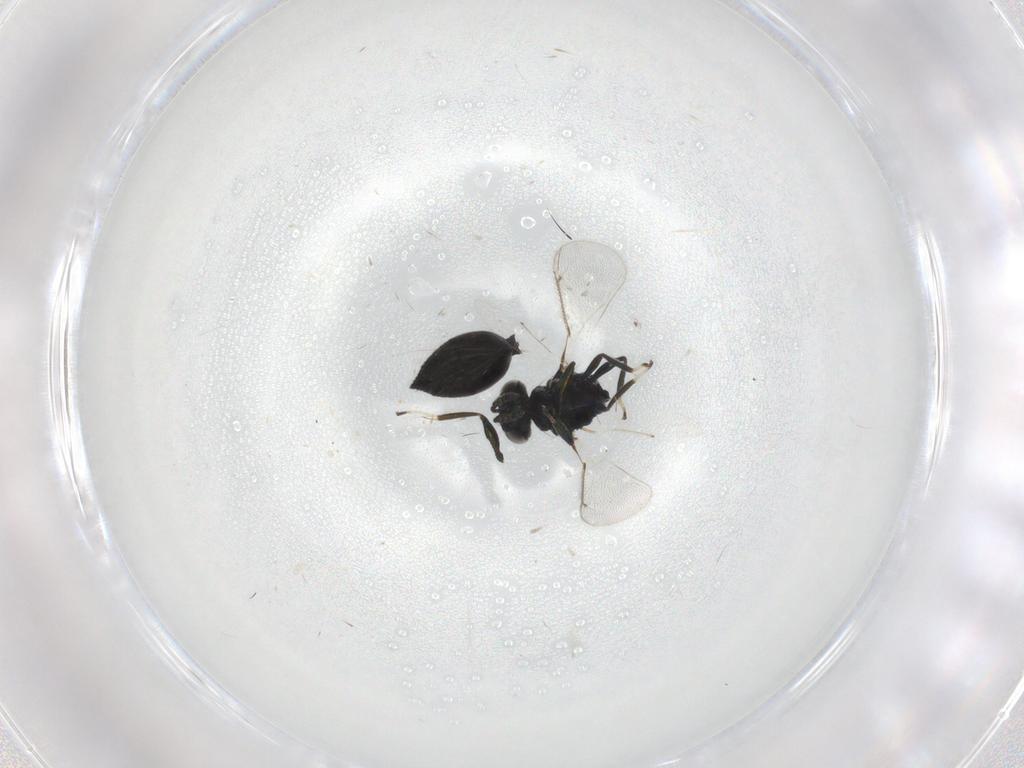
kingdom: Animalia
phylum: Arthropoda
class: Insecta
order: Hymenoptera
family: Eulophidae
